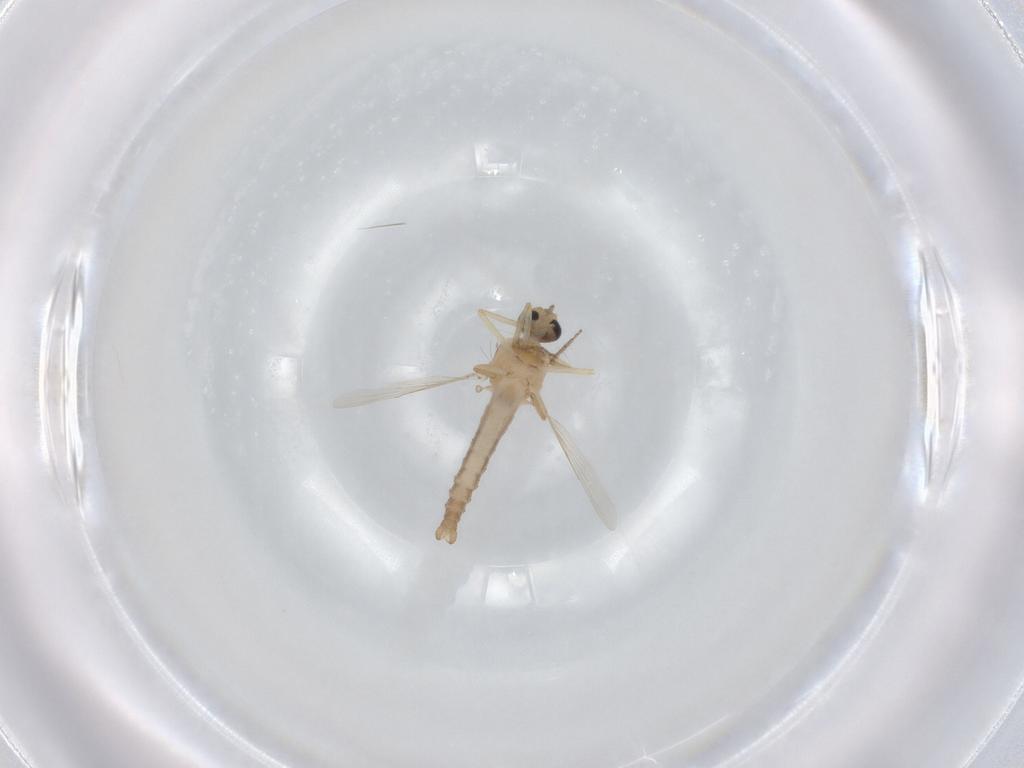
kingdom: Animalia
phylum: Arthropoda
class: Insecta
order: Diptera
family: Ceratopogonidae
